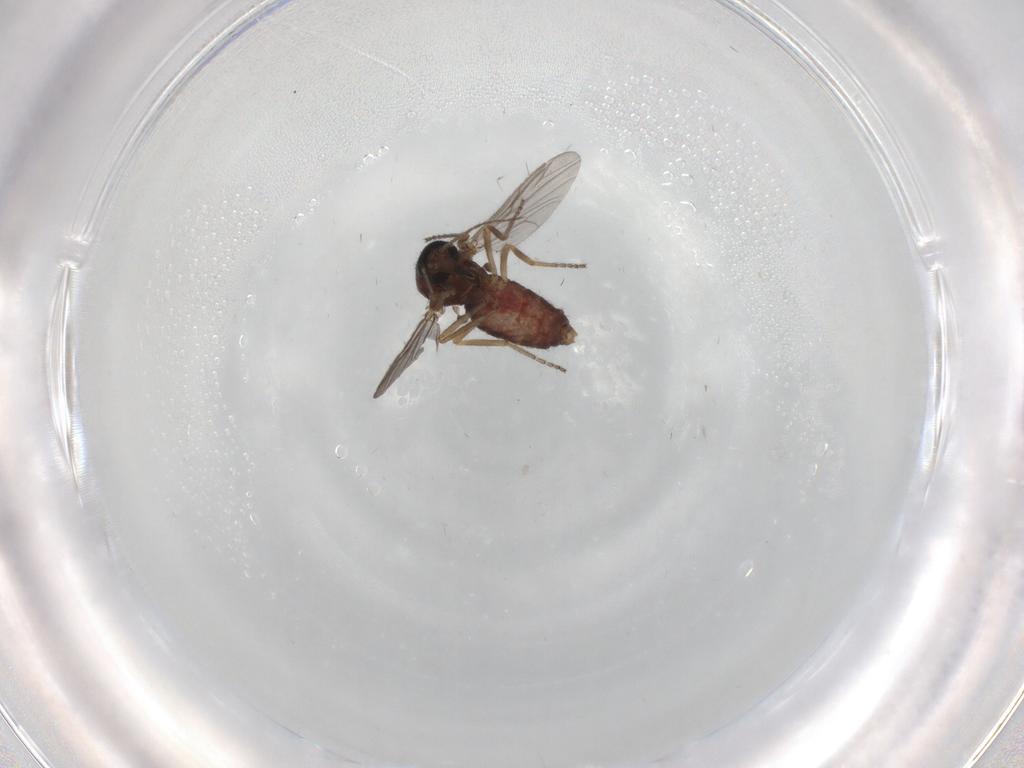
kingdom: Animalia
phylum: Arthropoda
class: Insecta
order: Diptera
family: Ceratopogonidae
